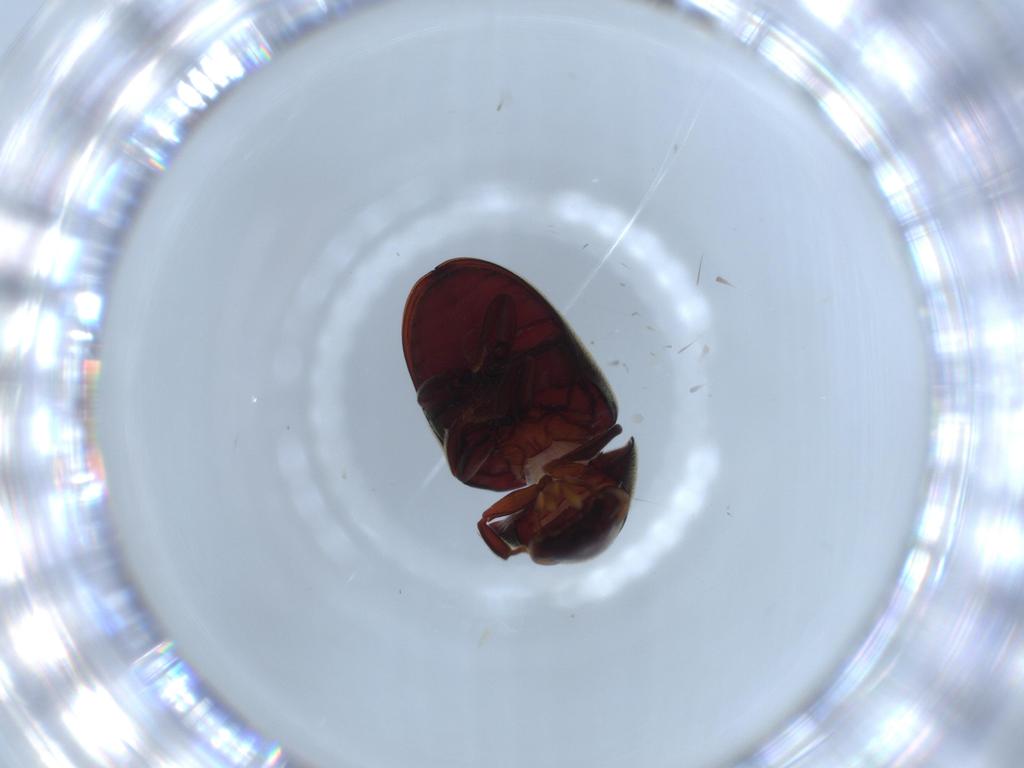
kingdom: Animalia
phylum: Arthropoda
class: Insecta
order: Coleoptera
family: Ptinidae
